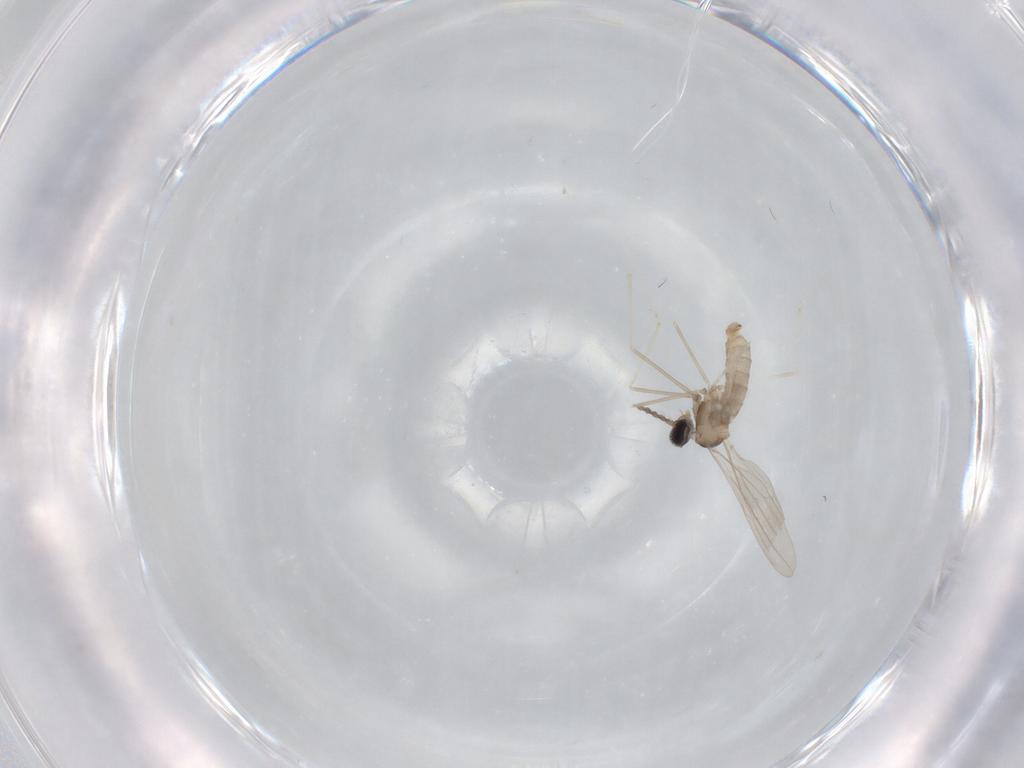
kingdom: Animalia
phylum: Arthropoda
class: Insecta
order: Diptera
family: Cecidomyiidae
